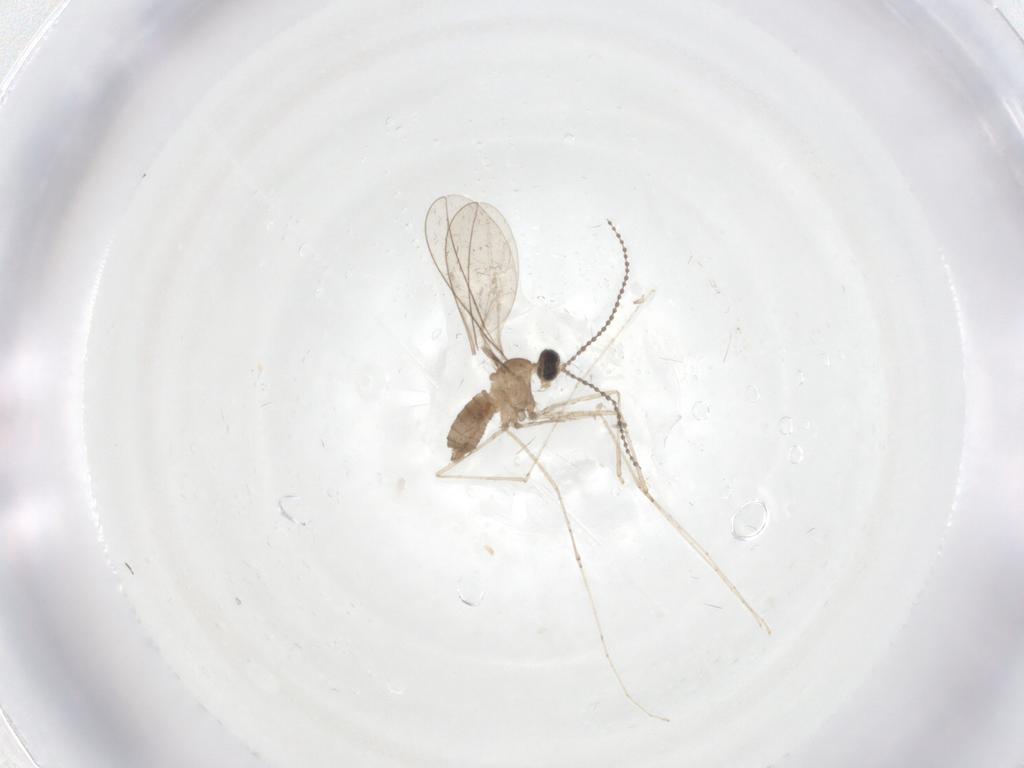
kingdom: Animalia
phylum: Arthropoda
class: Insecta
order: Diptera
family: Cecidomyiidae
